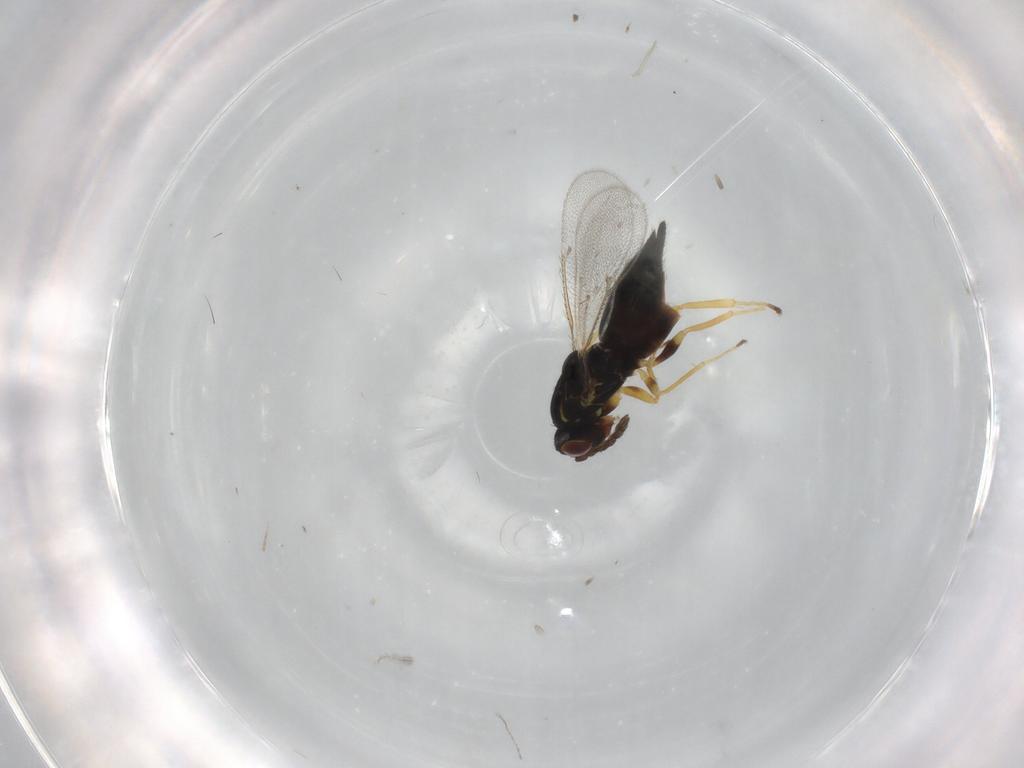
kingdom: Animalia
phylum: Arthropoda
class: Insecta
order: Hymenoptera
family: Eulophidae
